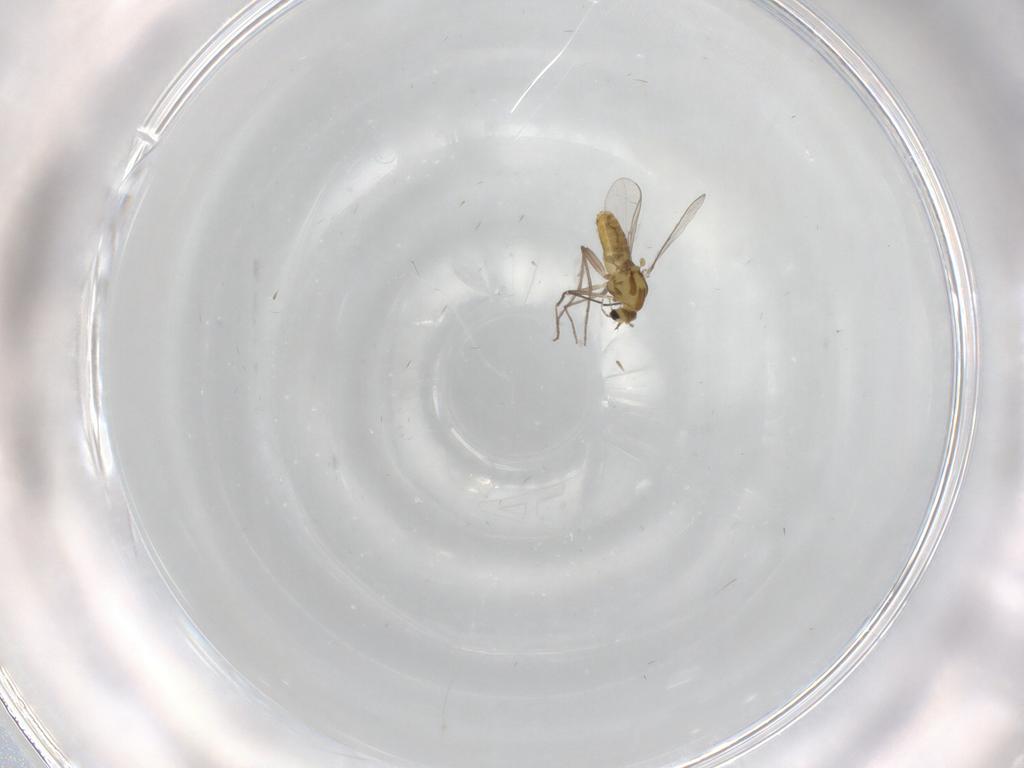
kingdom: Animalia
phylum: Arthropoda
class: Insecta
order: Diptera
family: Chironomidae
